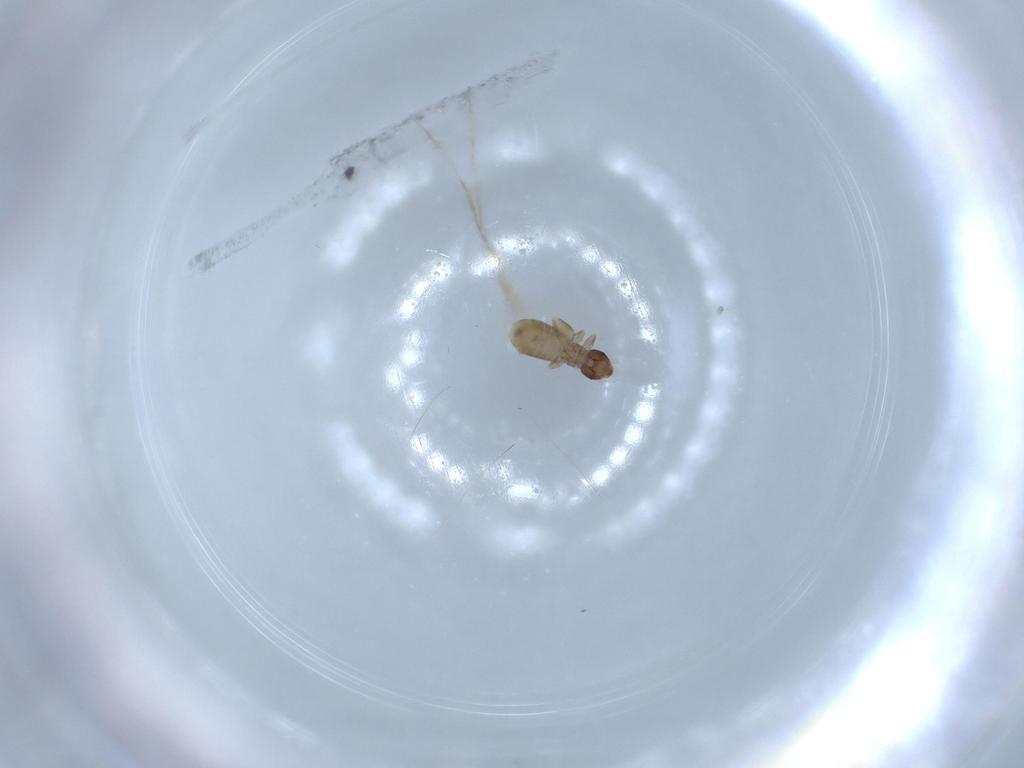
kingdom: Animalia
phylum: Arthropoda
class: Insecta
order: Psocodea
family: Liposcelididae
